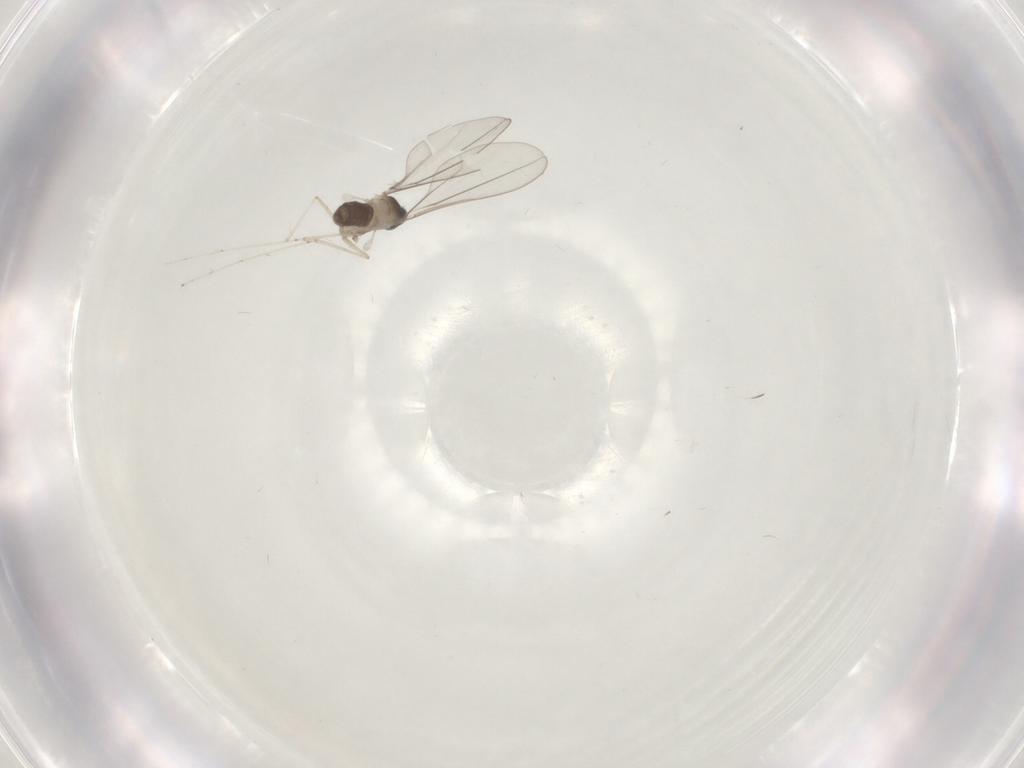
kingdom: Animalia
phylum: Arthropoda
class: Insecta
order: Diptera
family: Cecidomyiidae
